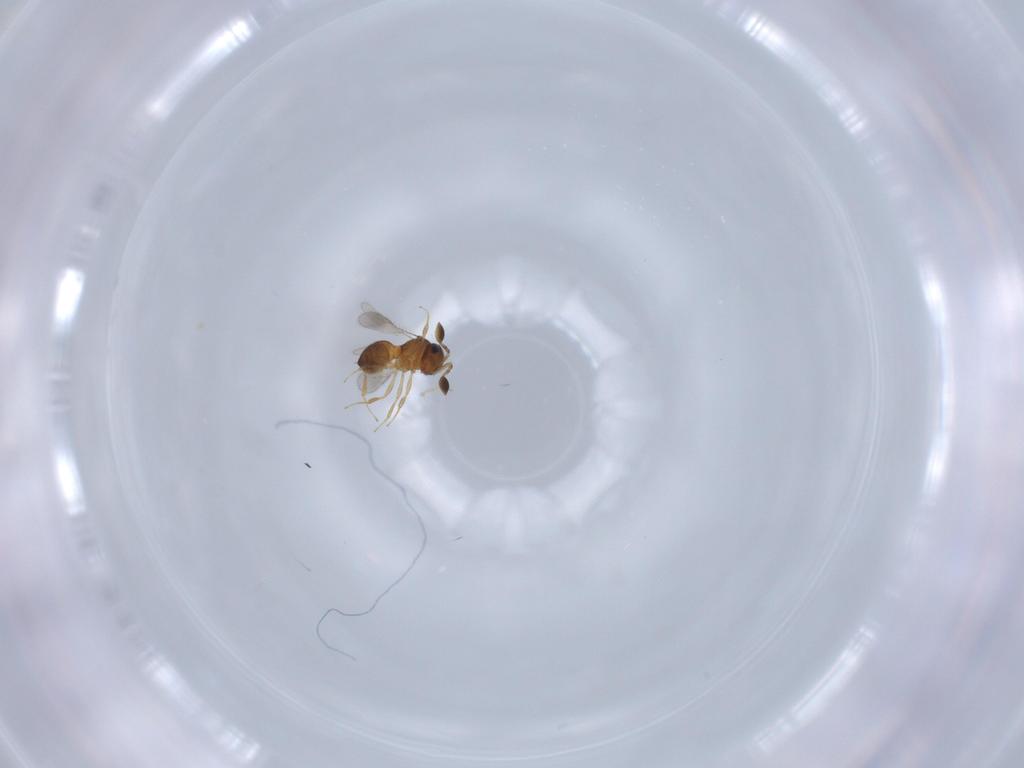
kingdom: Animalia
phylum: Arthropoda
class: Insecta
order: Hymenoptera
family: Scelionidae
